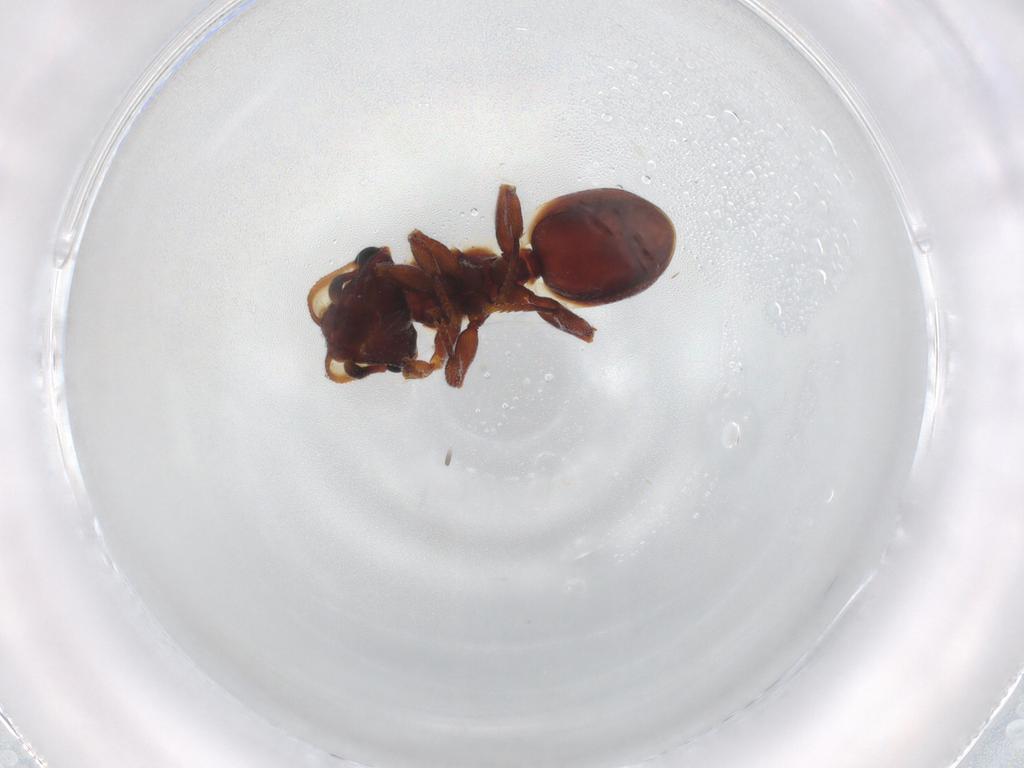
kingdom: Animalia
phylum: Arthropoda
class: Insecta
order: Hymenoptera
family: Formicidae
